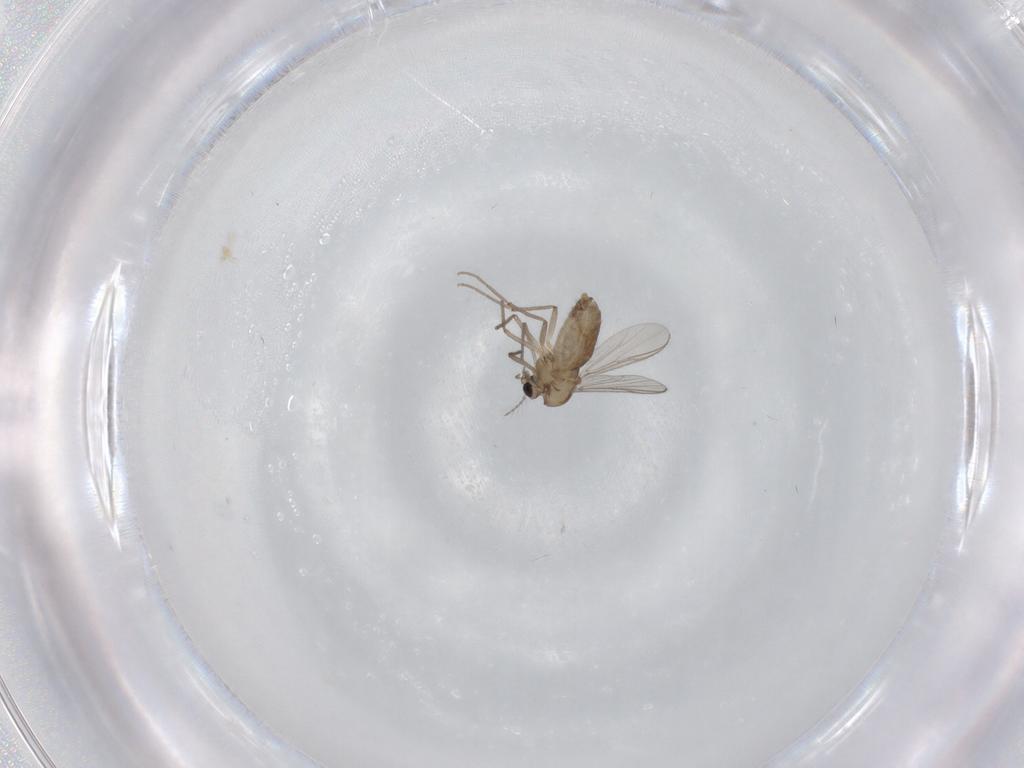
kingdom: Animalia
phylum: Arthropoda
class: Insecta
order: Diptera
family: Chironomidae
